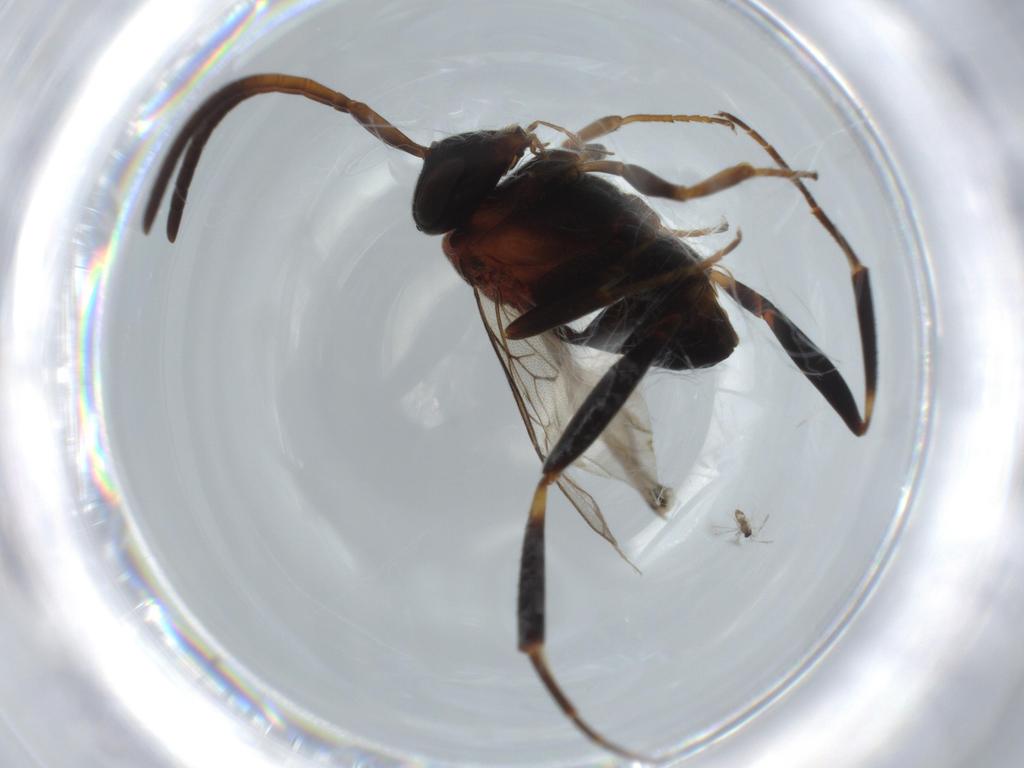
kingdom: Animalia
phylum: Arthropoda
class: Insecta
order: Hymenoptera
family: Evaniidae
